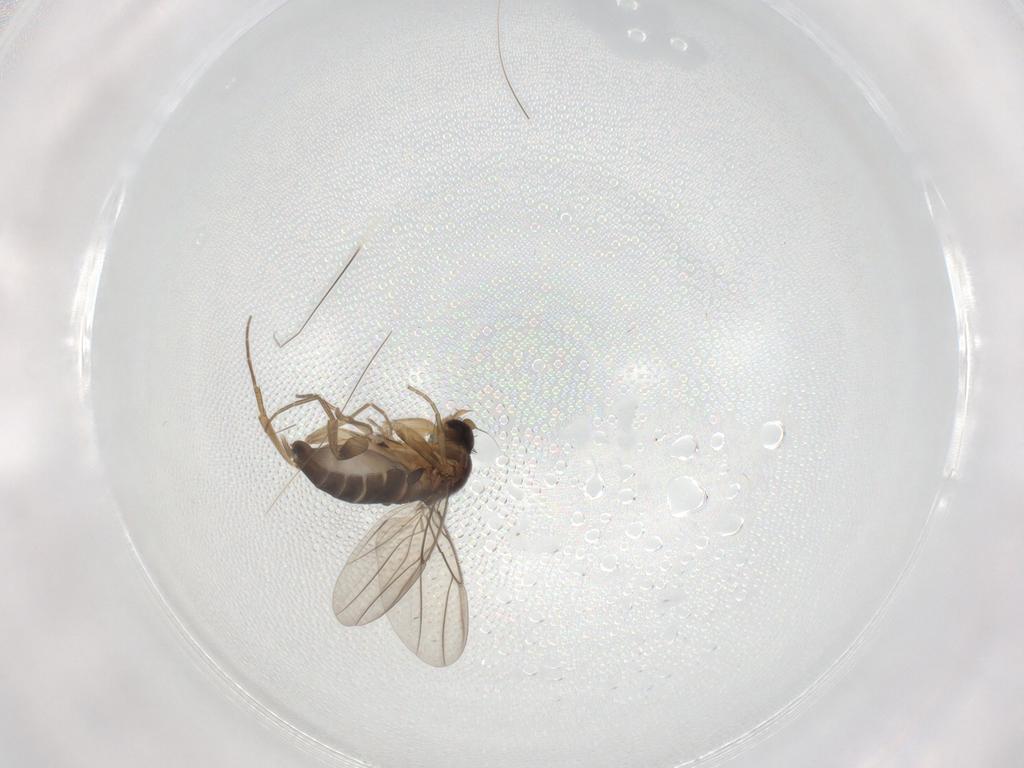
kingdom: Animalia
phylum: Arthropoda
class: Insecta
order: Diptera
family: Phoridae
